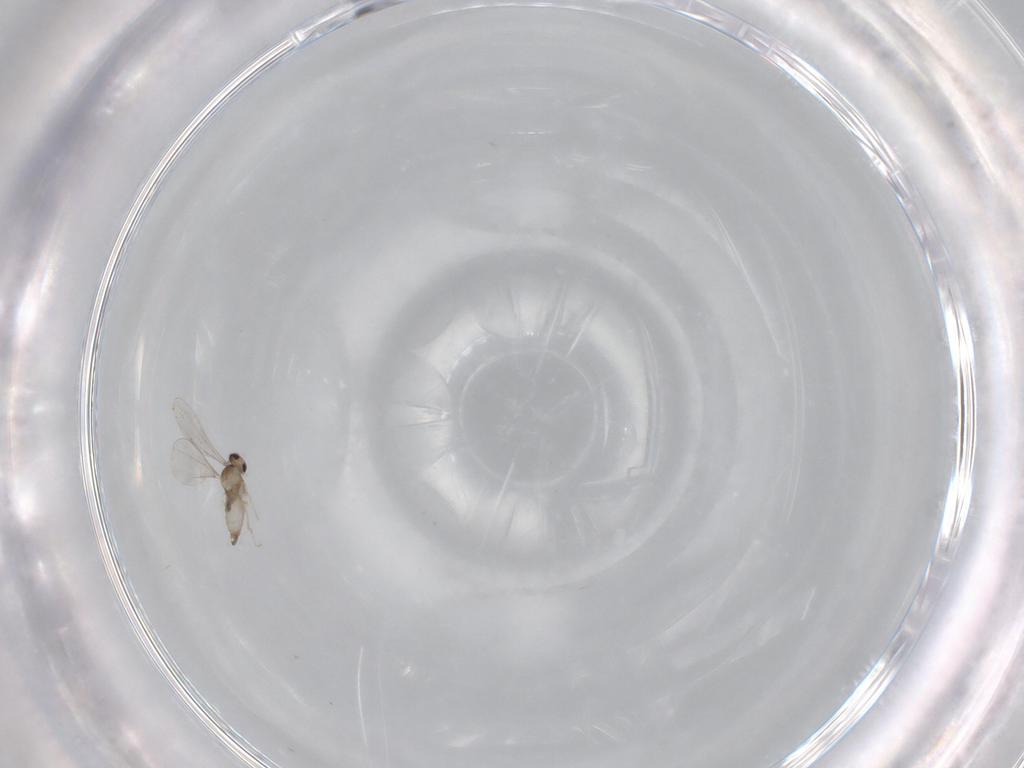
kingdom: Animalia
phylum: Arthropoda
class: Insecta
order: Diptera
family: Cecidomyiidae
